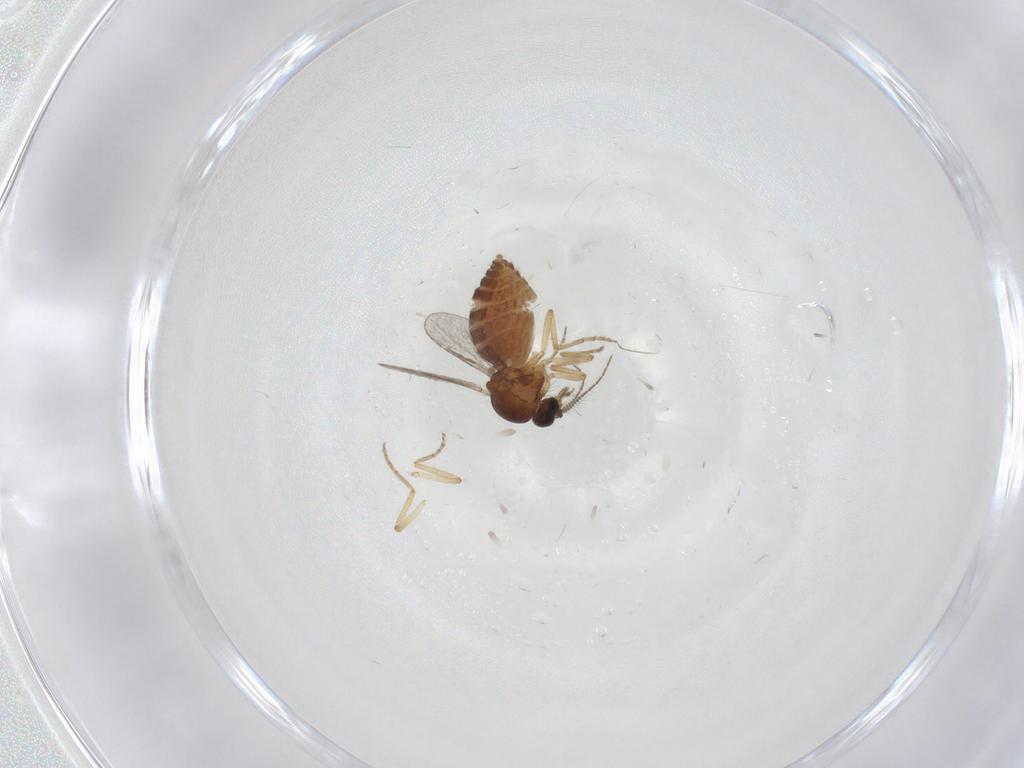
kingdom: Animalia
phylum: Arthropoda
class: Insecta
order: Diptera
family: Ceratopogonidae
